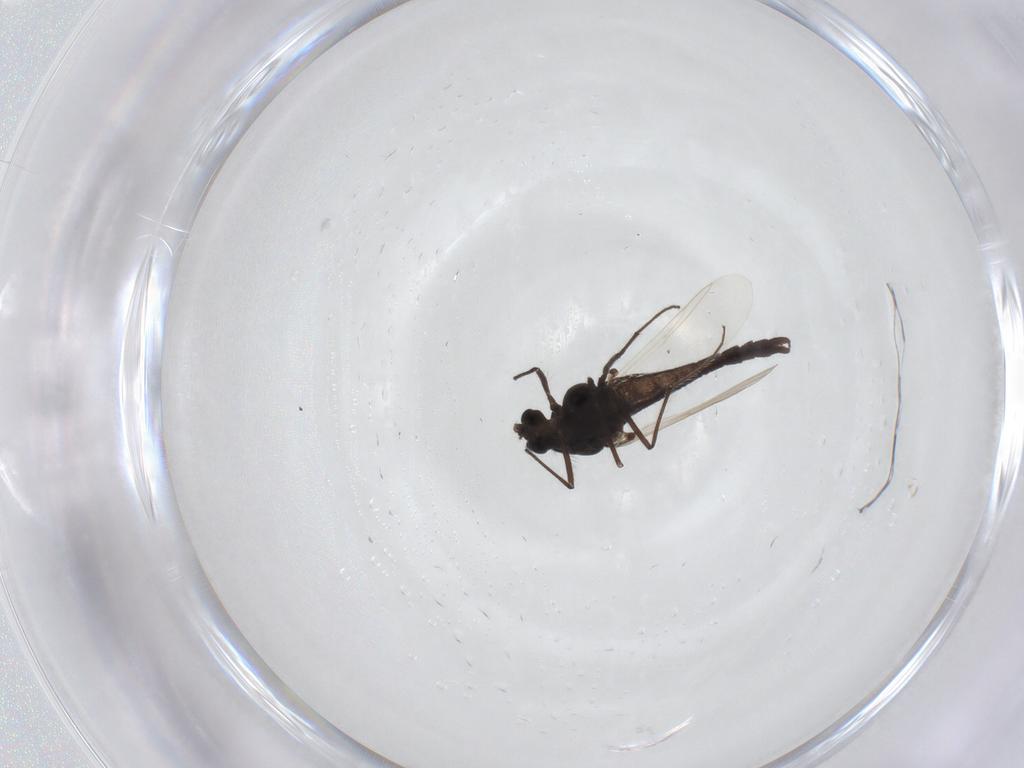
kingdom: Animalia
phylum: Arthropoda
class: Insecta
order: Diptera
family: Chironomidae
